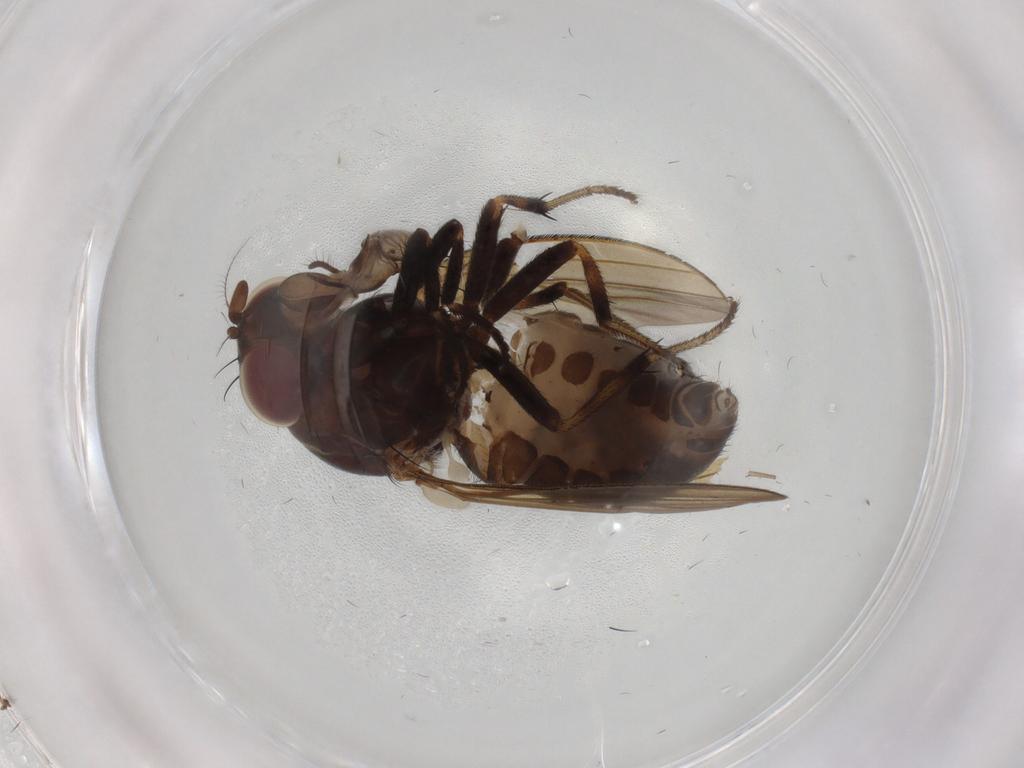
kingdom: Animalia
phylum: Arthropoda
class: Insecta
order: Diptera
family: Lauxaniidae
